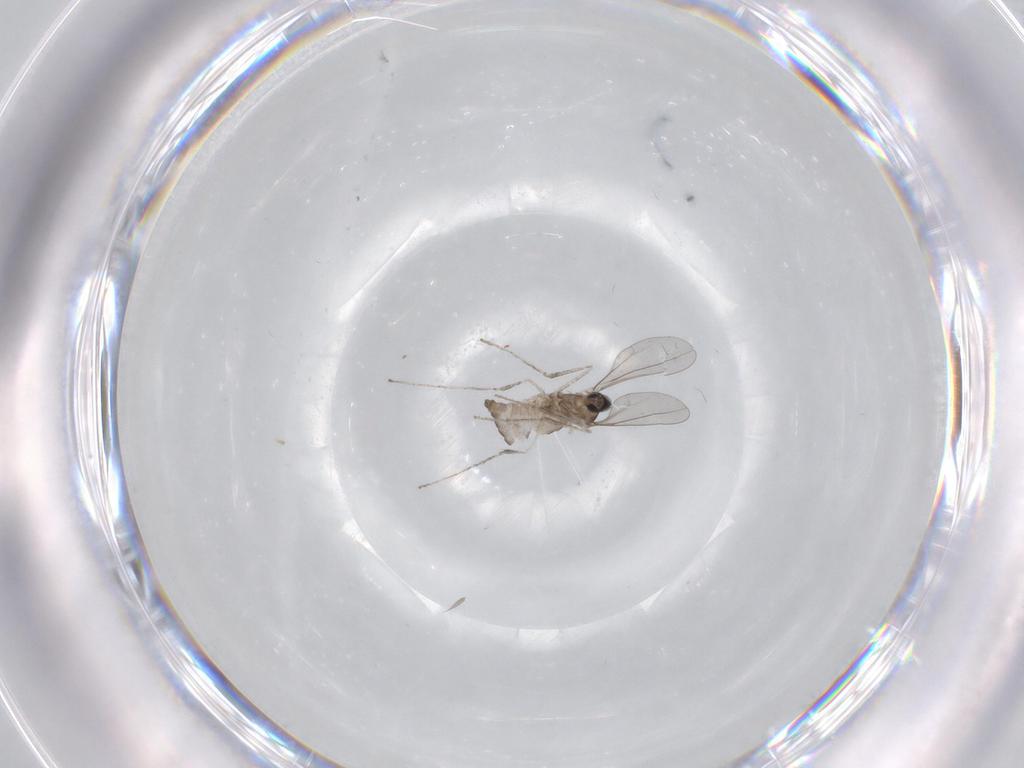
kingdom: Animalia
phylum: Arthropoda
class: Insecta
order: Diptera
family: Cecidomyiidae
